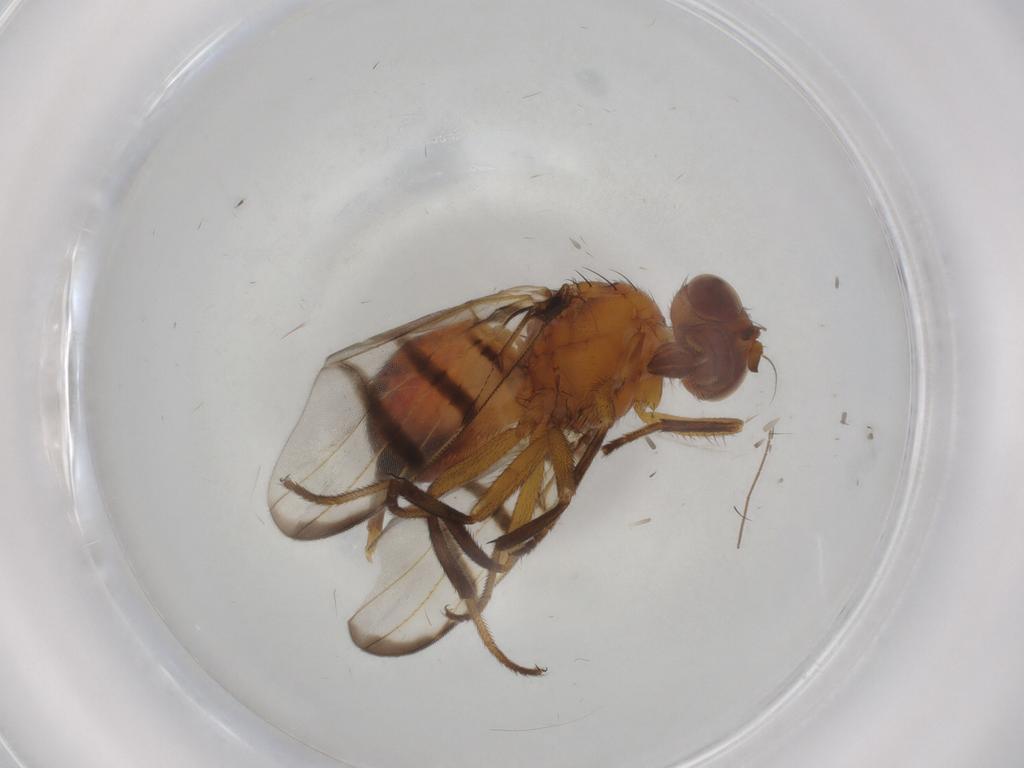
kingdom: Animalia
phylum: Arthropoda
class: Insecta
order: Diptera
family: Platystomatidae
